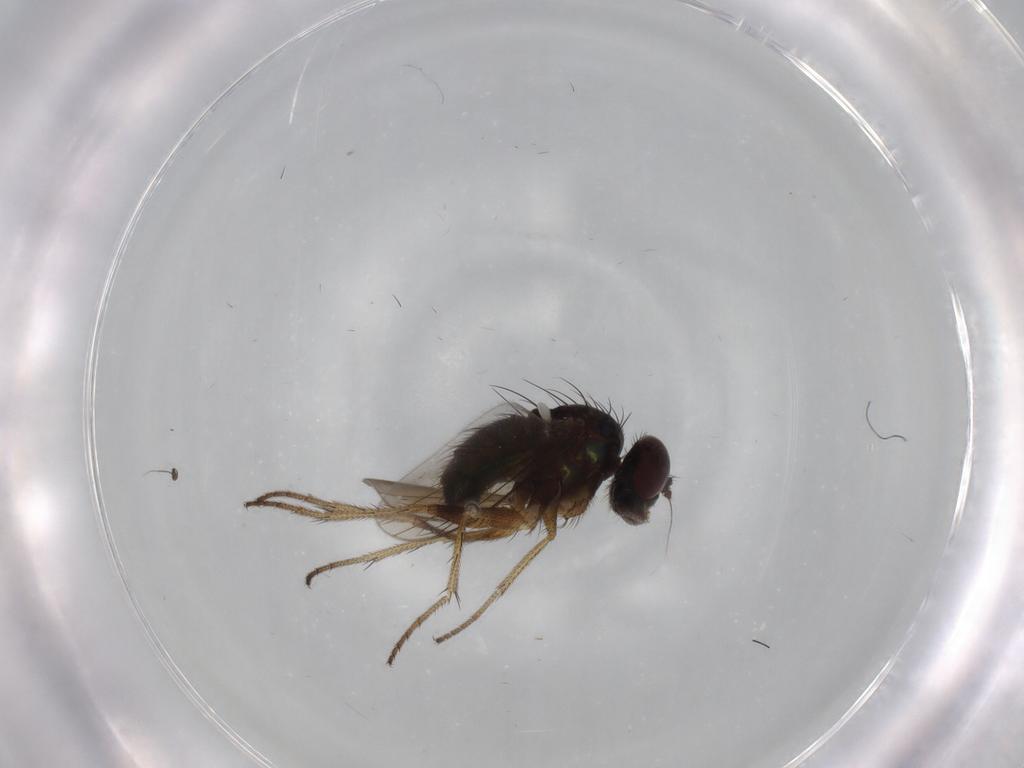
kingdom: Animalia
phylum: Arthropoda
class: Insecta
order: Diptera
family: Dolichopodidae
